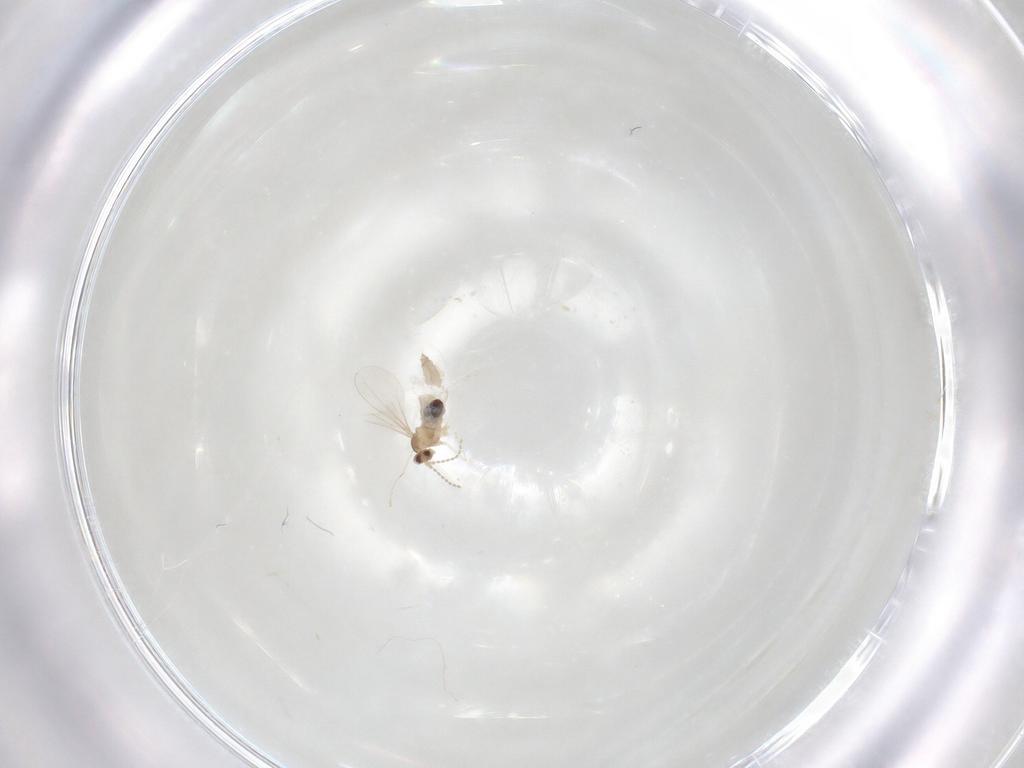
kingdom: Animalia
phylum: Arthropoda
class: Insecta
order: Diptera
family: Cecidomyiidae
